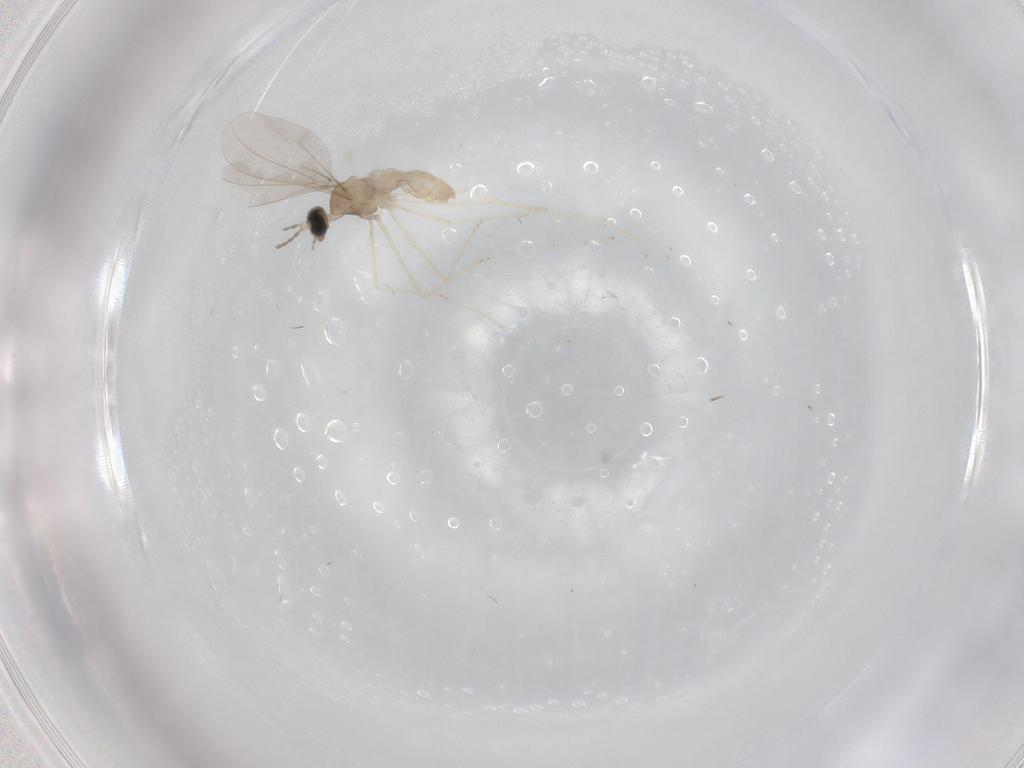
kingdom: Animalia
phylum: Arthropoda
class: Insecta
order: Diptera
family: Cecidomyiidae
